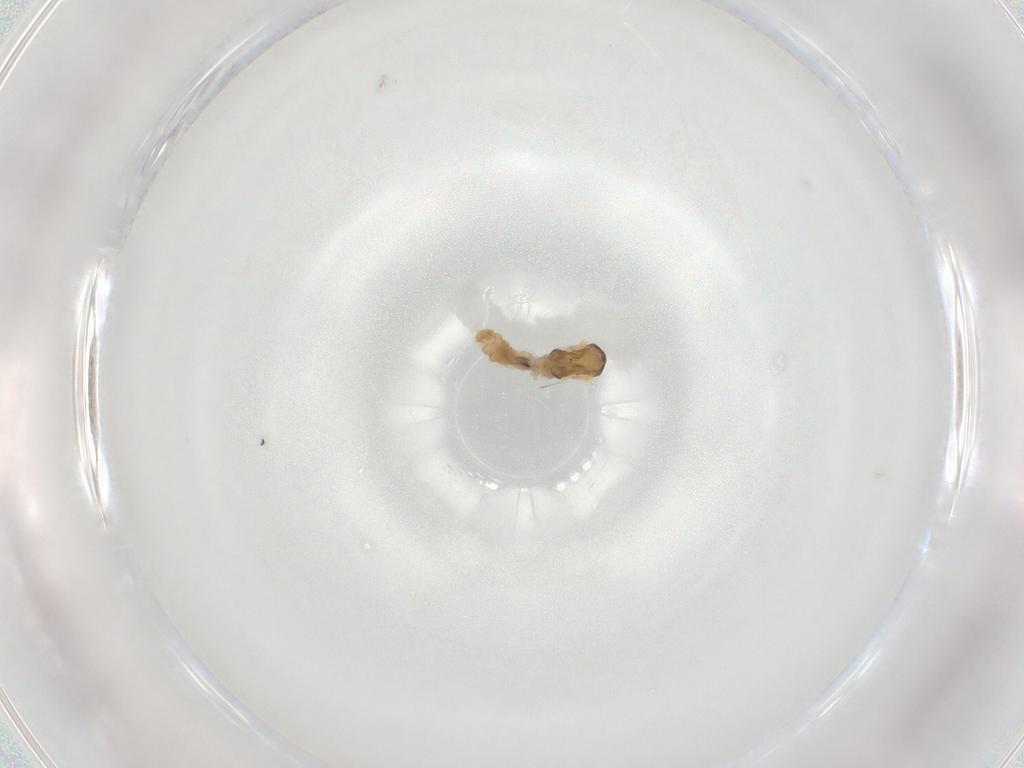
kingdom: Animalia
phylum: Arthropoda
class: Insecta
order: Diptera
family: Cecidomyiidae
